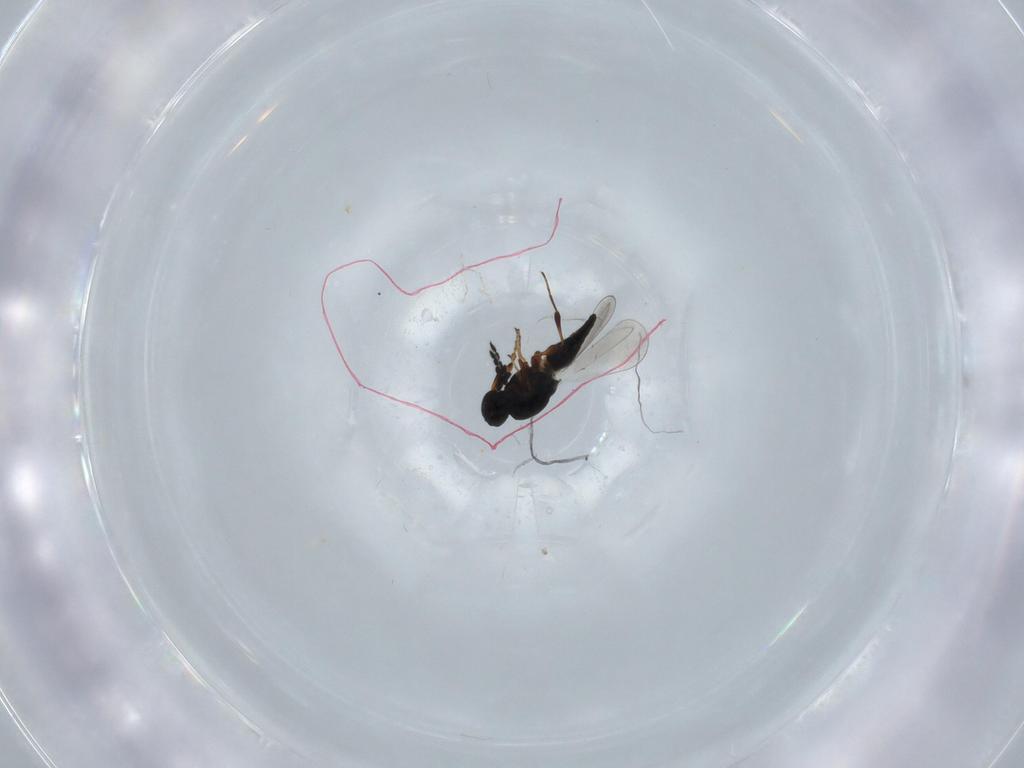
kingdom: Animalia
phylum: Arthropoda
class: Insecta
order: Hymenoptera
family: Platygastridae
